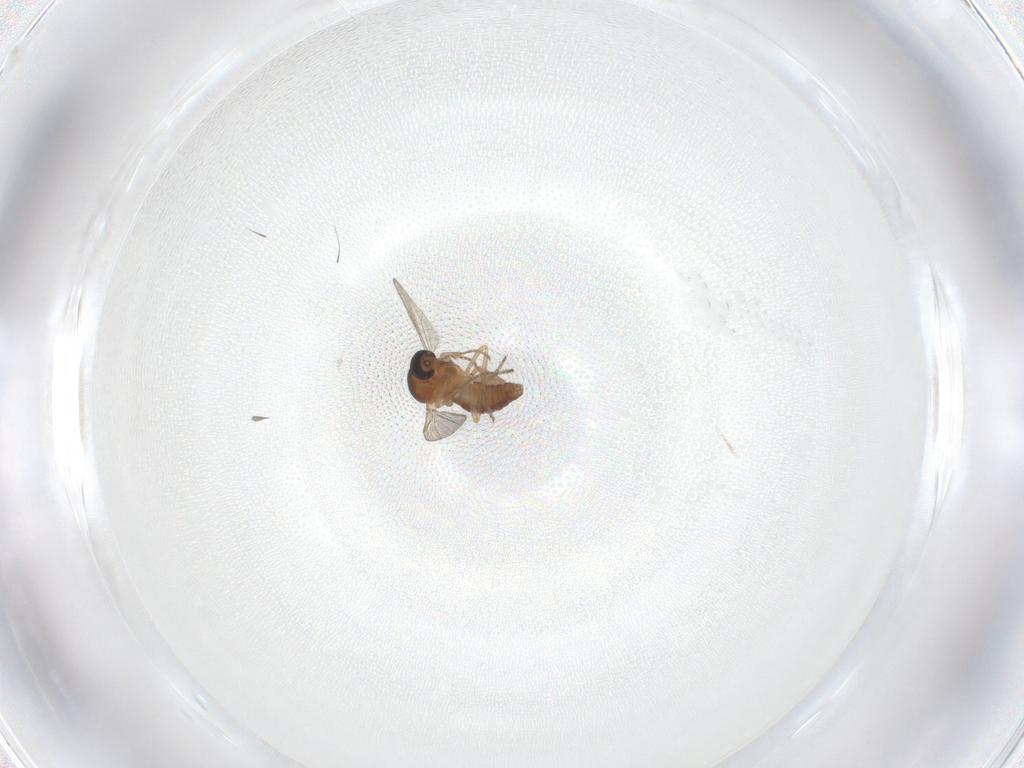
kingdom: Animalia
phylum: Arthropoda
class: Insecta
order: Diptera
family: Ceratopogonidae
